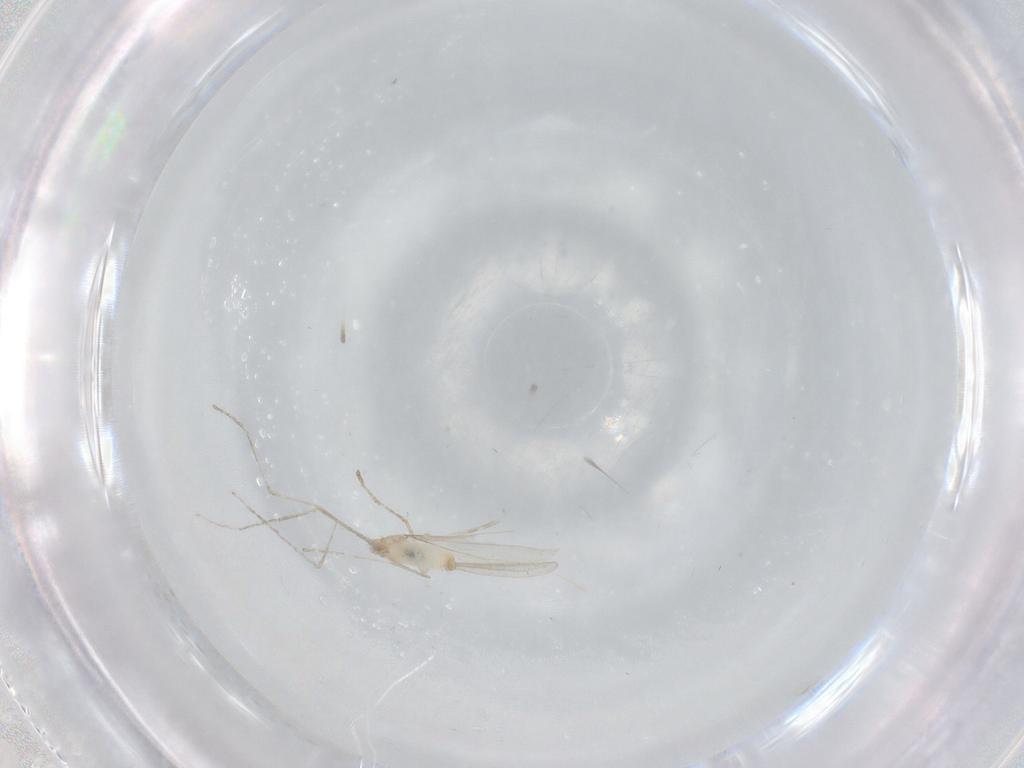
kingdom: Animalia
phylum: Arthropoda
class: Insecta
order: Diptera
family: Cecidomyiidae
